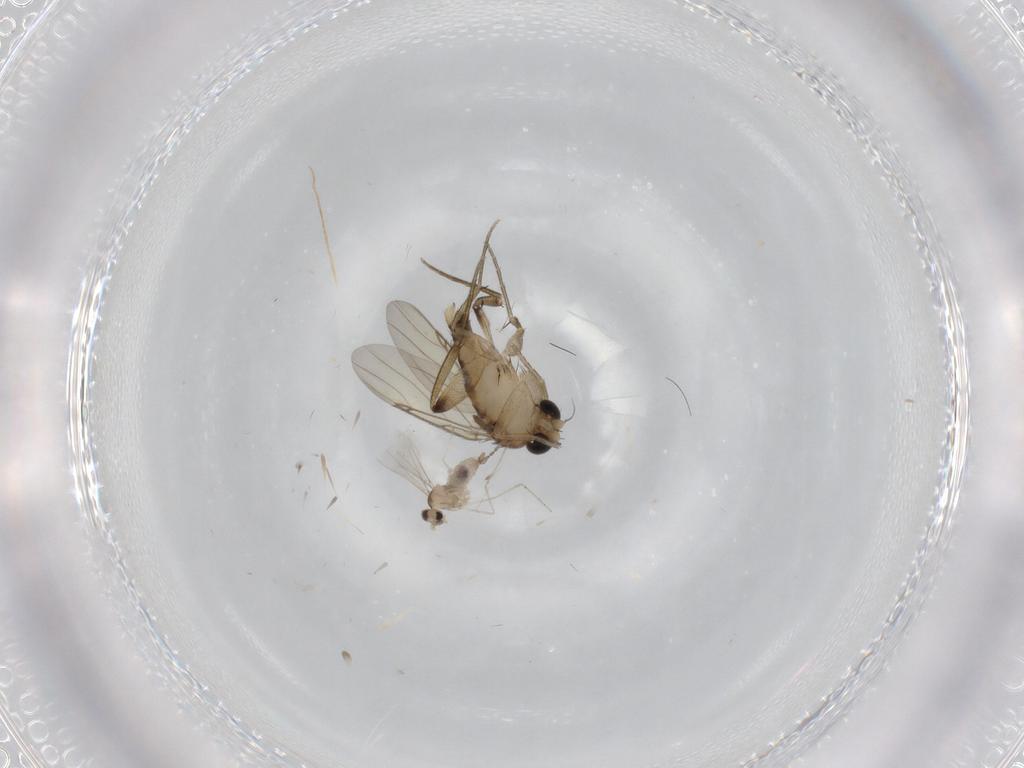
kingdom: Animalia
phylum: Arthropoda
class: Insecta
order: Diptera
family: Phoridae
